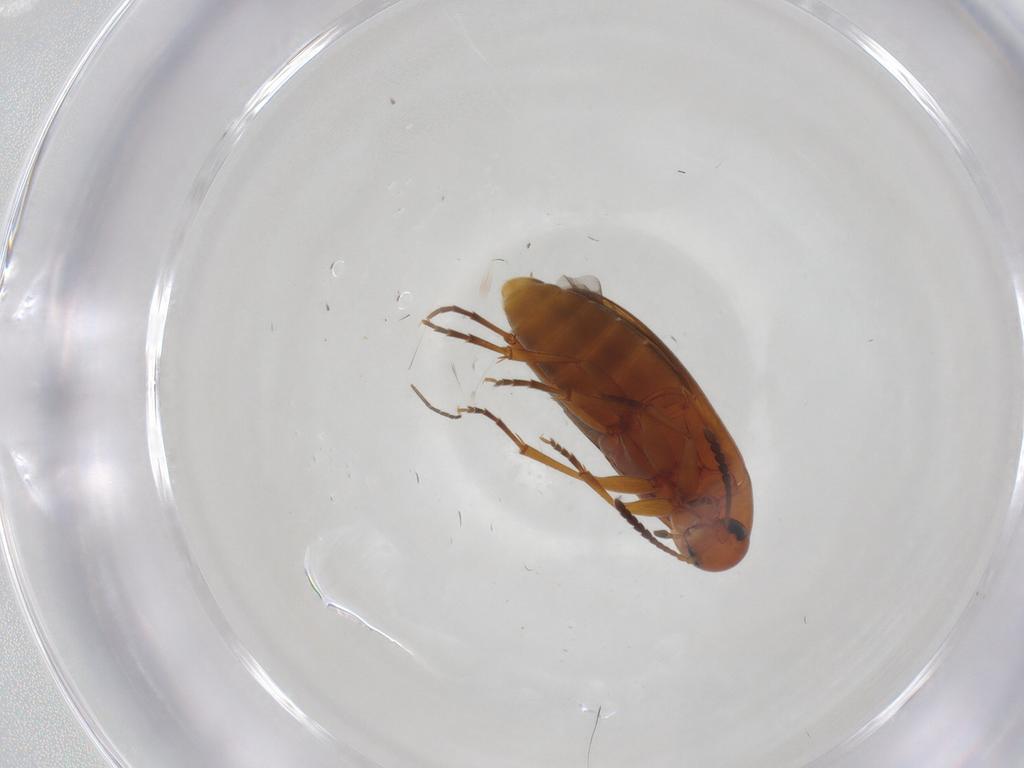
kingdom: Animalia
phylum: Arthropoda
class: Insecta
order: Coleoptera
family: Scraptiidae
